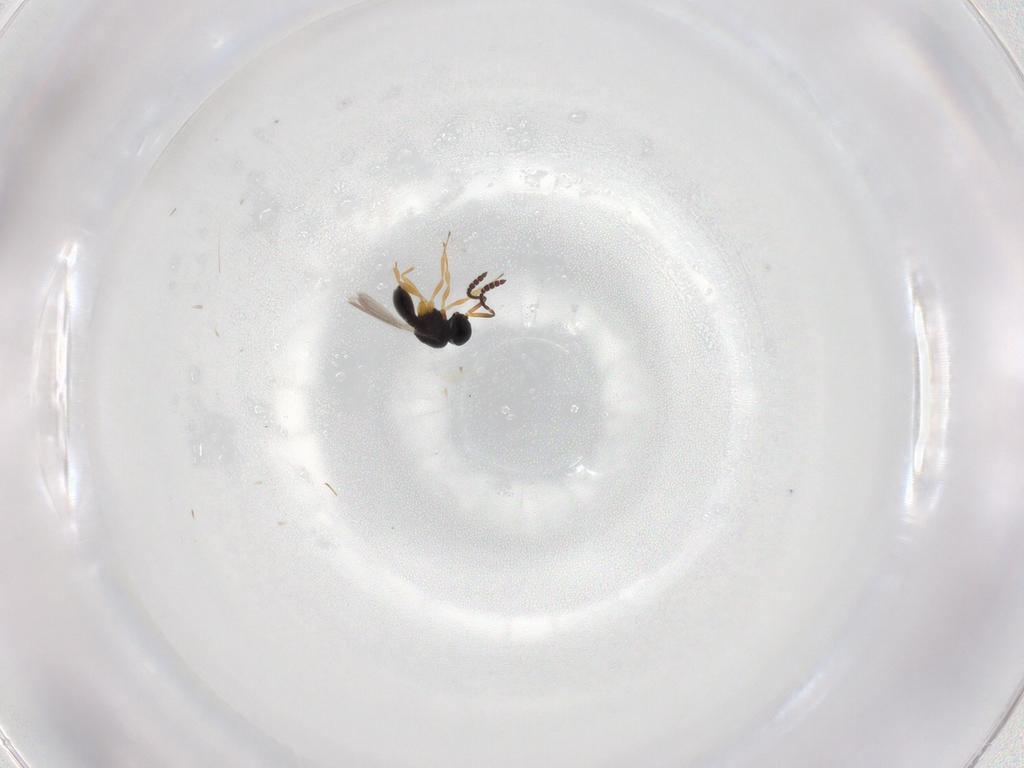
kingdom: Animalia
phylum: Arthropoda
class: Insecta
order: Hymenoptera
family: Scelionidae
